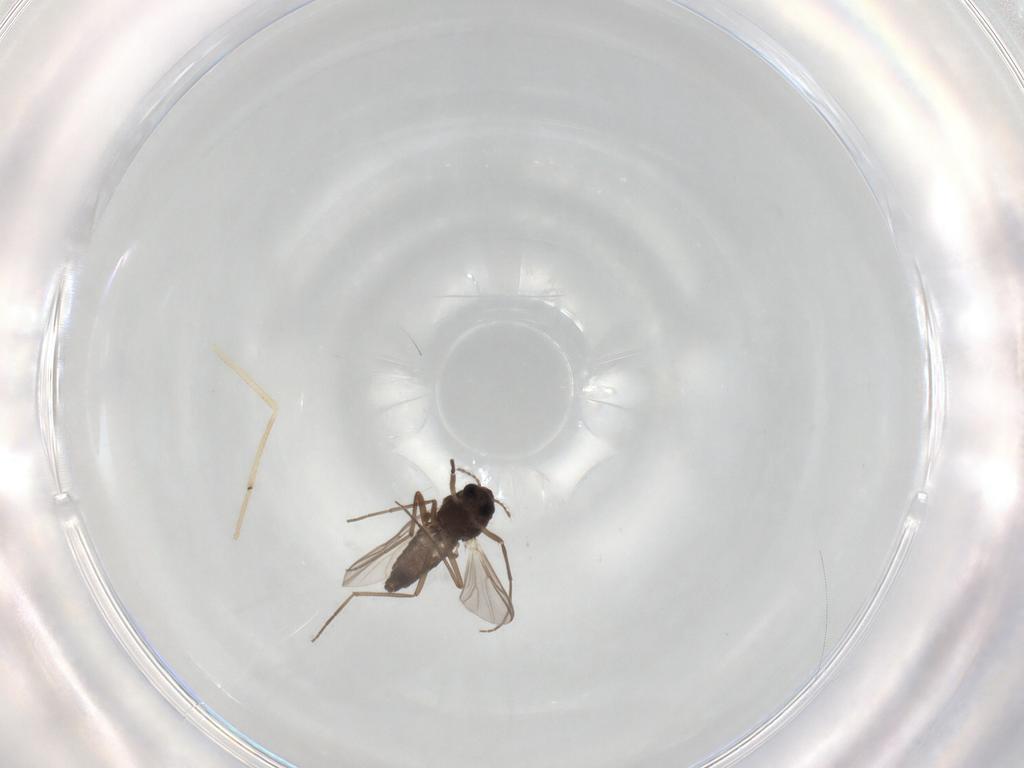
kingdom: Animalia
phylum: Arthropoda
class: Insecta
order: Diptera
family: Chironomidae
